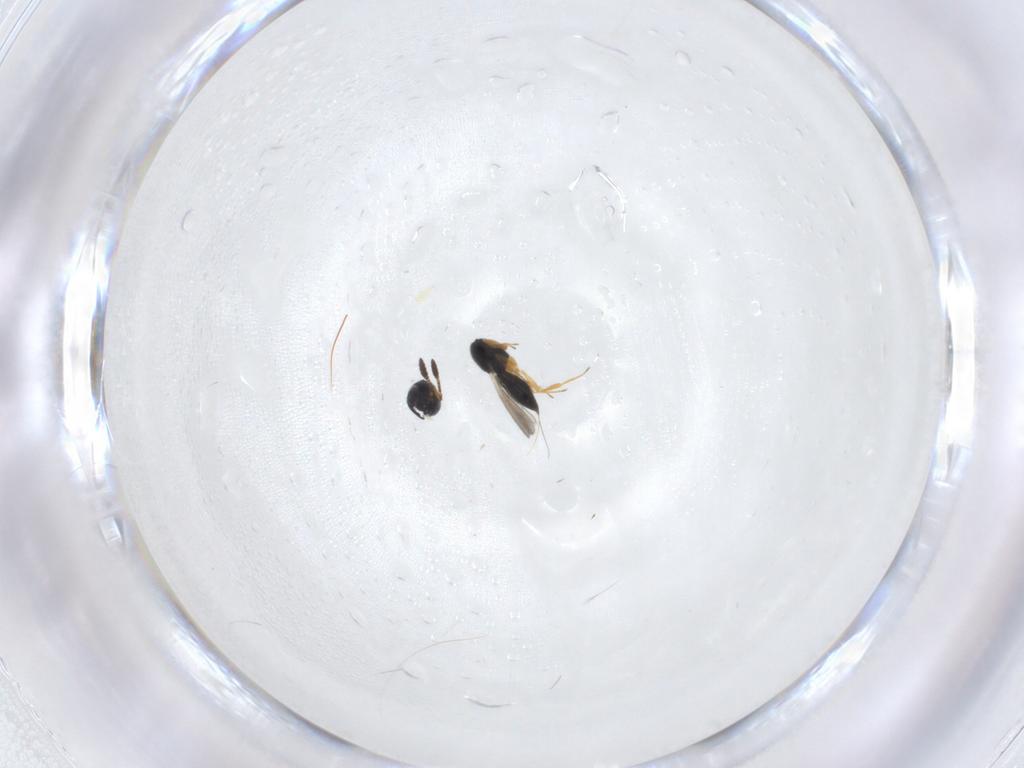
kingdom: Animalia
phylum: Arthropoda
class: Insecta
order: Hymenoptera
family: Scelionidae
